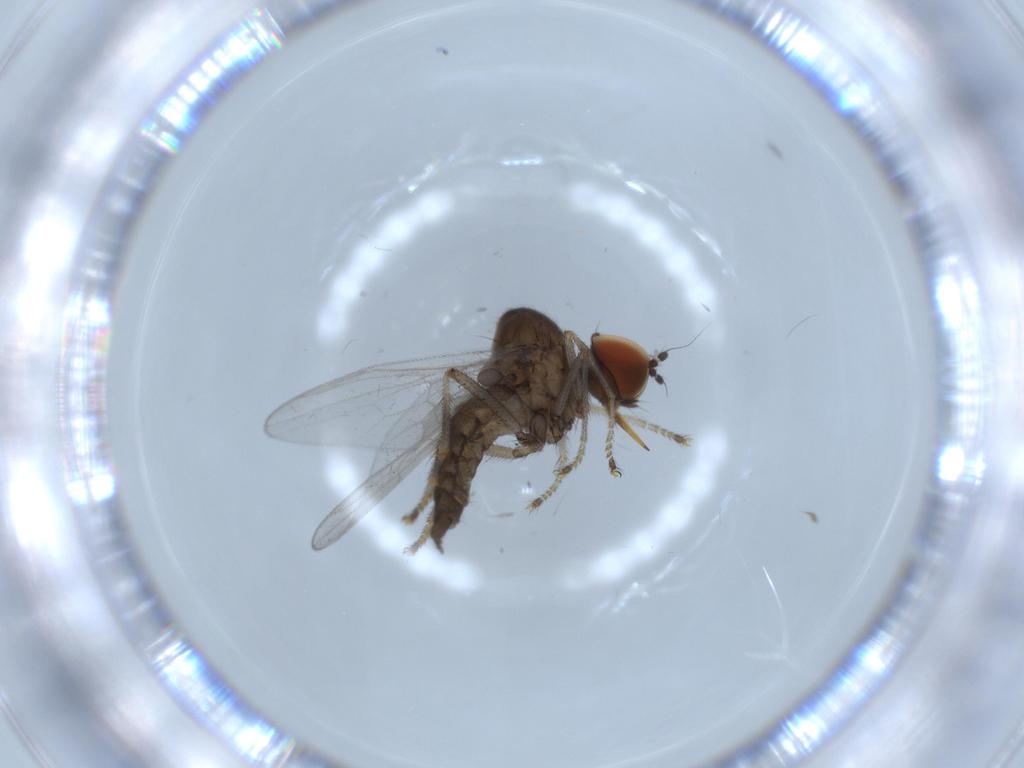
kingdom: Animalia
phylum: Arthropoda
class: Insecta
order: Diptera
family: Hybotidae
